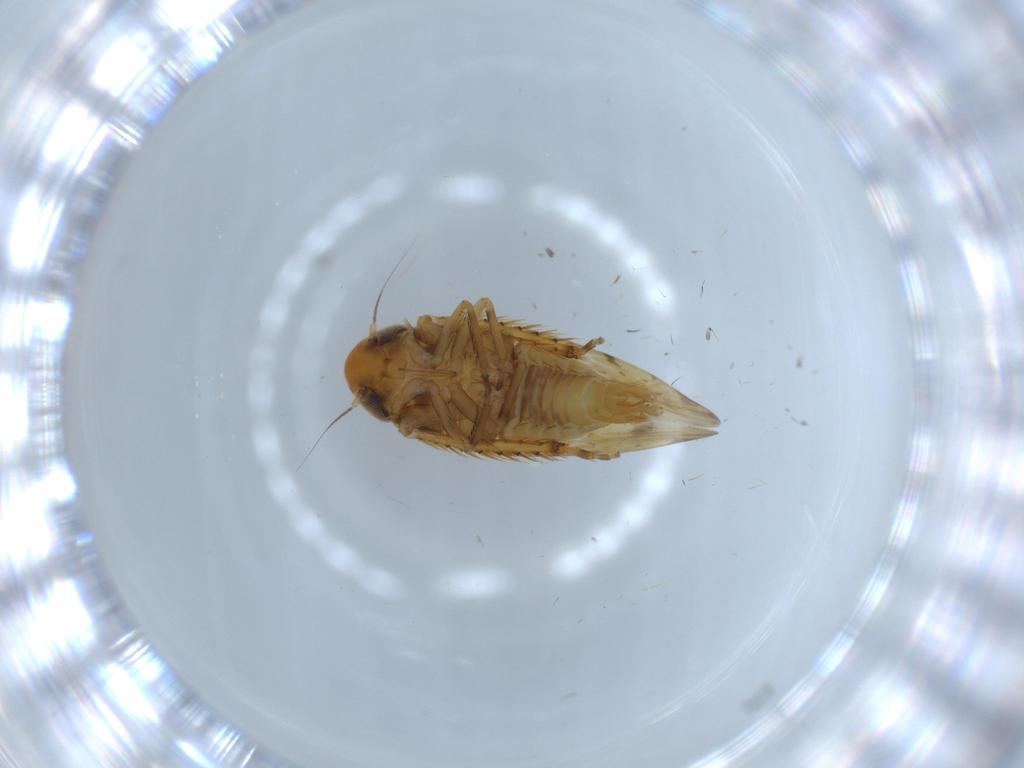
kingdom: Animalia
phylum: Arthropoda
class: Insecta
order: Hemiptera
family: Cicadellidae
